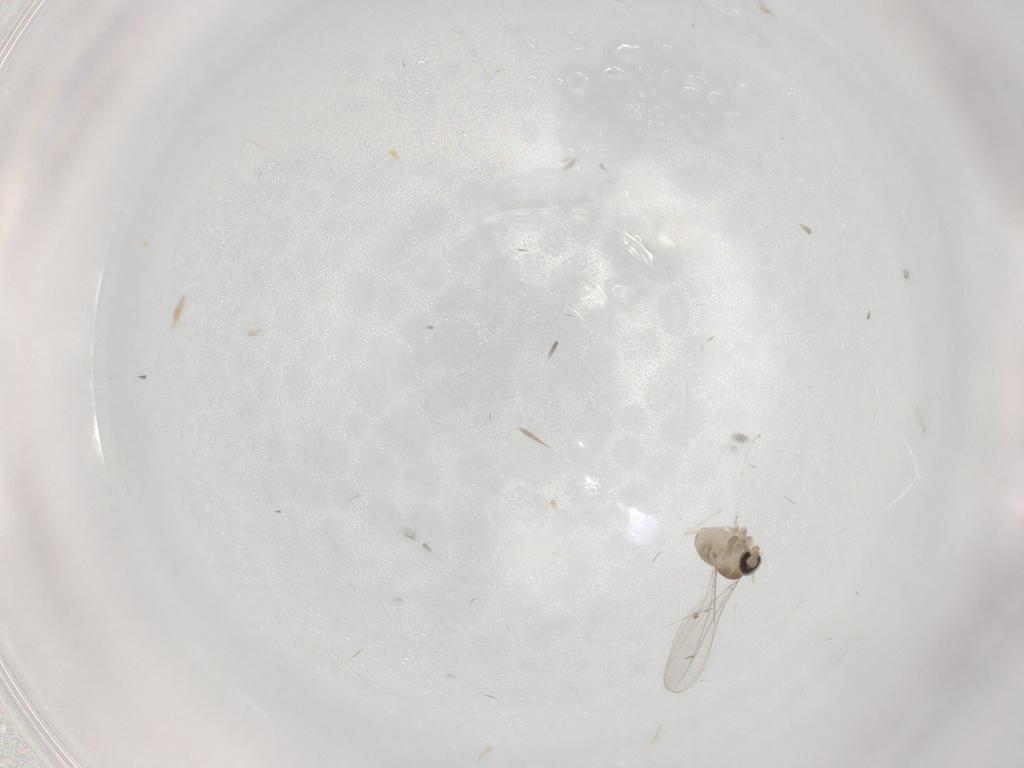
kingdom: Animalia
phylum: Arthropoda
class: Insecta
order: Diptera
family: Cecidomyiidae
